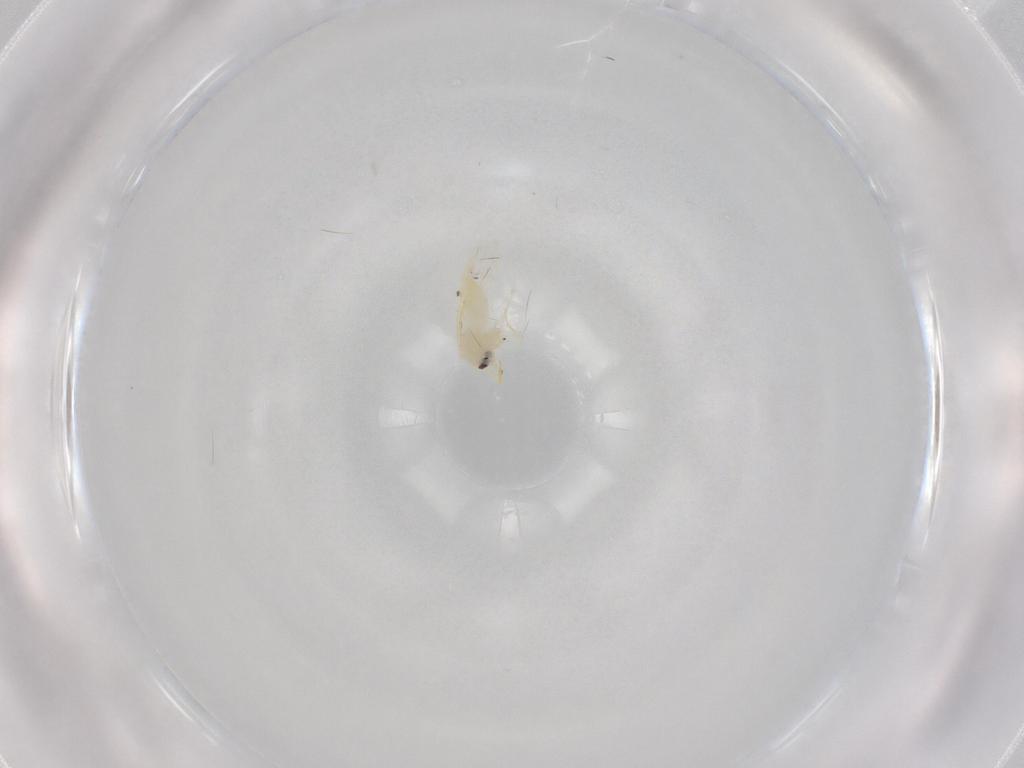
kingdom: Animalia
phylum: Arthropoda
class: Insecta
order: Hemiptera
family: Aleyrodidae
